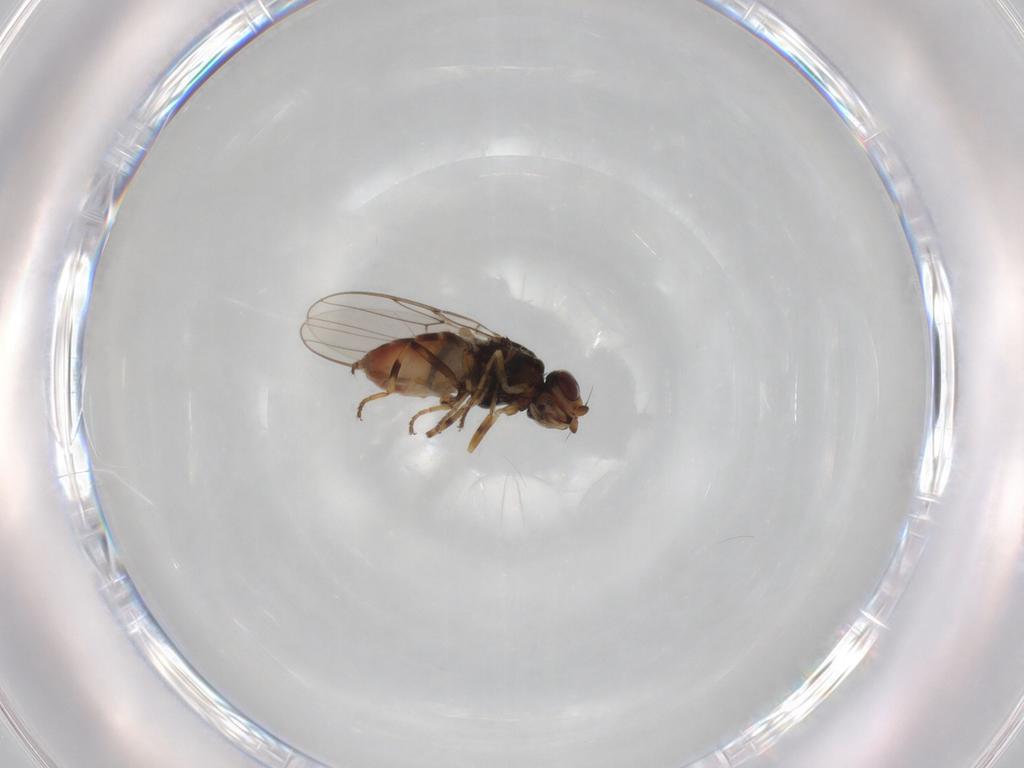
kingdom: Animalia
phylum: Arthropoda
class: Insecta
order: Diptera
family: Chloropidae
